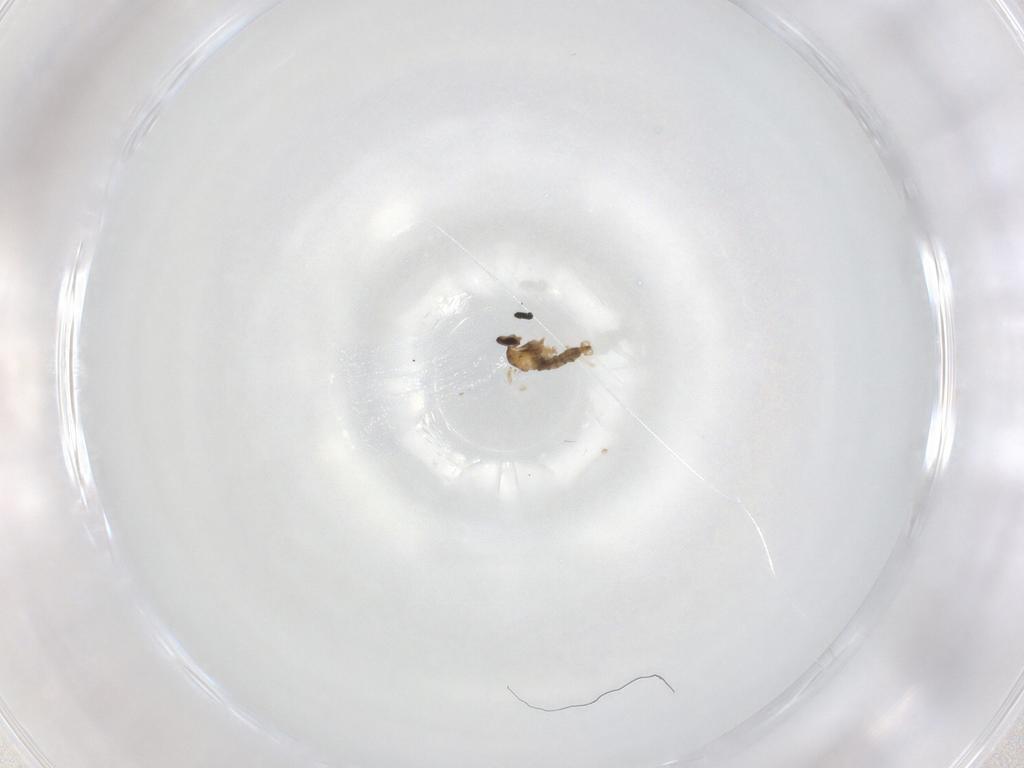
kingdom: Animalia
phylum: Arthropoda
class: Insecta
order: Diptera
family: Cecidomyiidae
